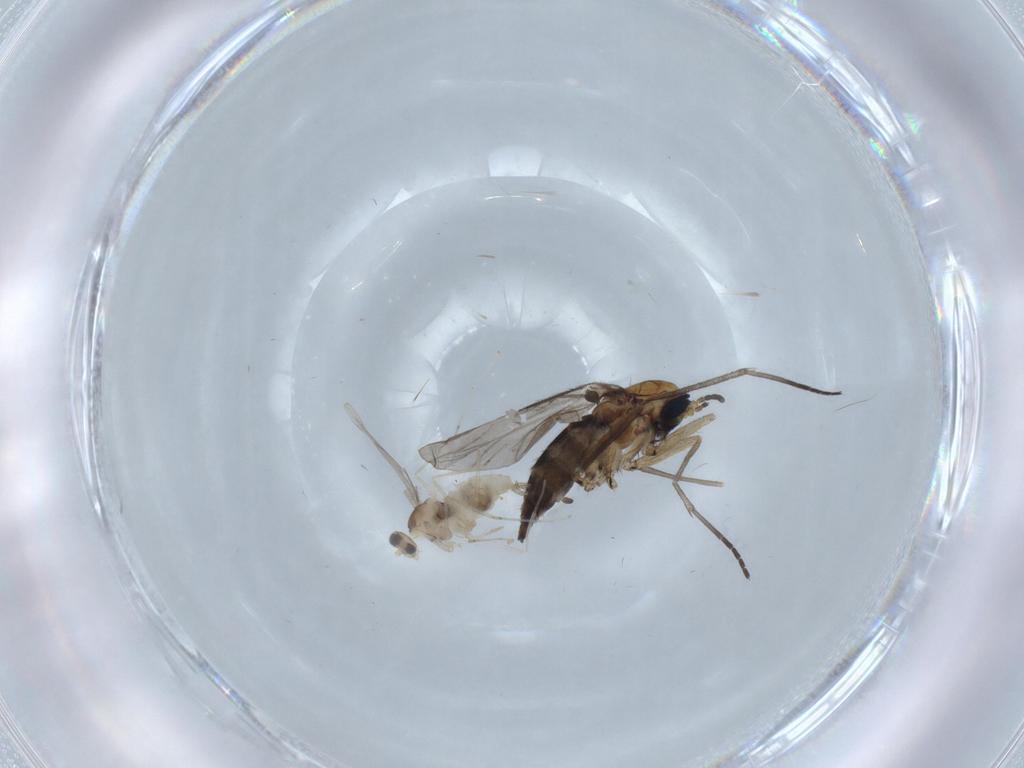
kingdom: Animalia
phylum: Arthropoda
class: Insecta
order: Diptera
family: Cecidomyiidae
